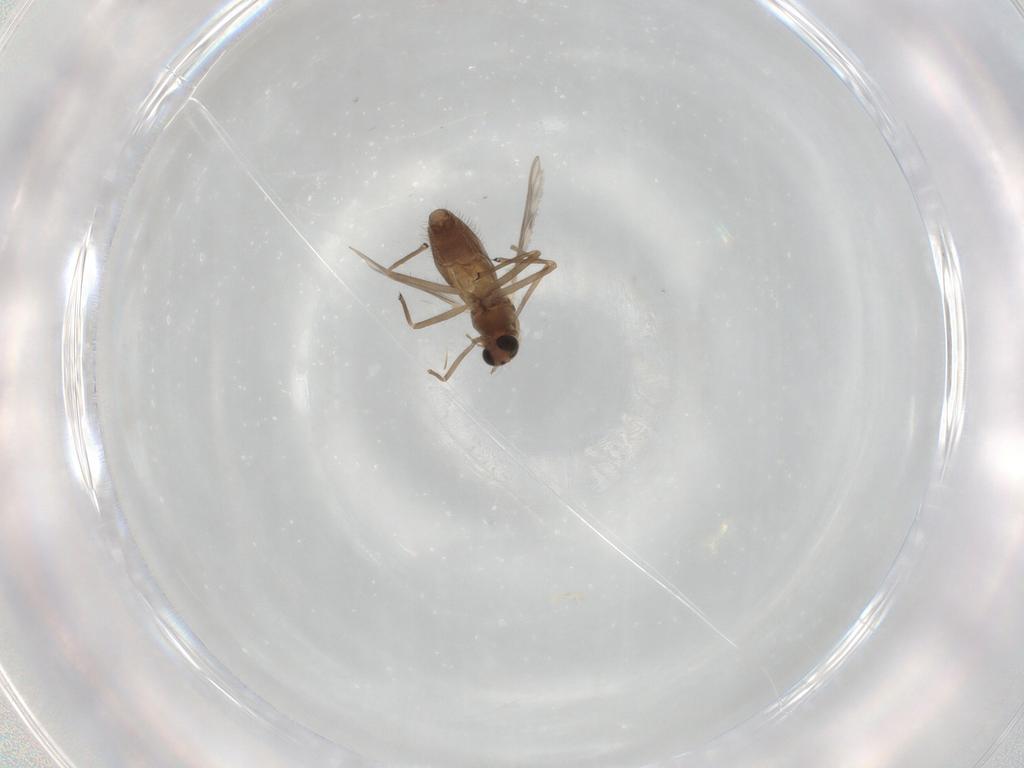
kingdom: Animalia
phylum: Arthropoda
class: Insecta
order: Diptera
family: Chironomidae
